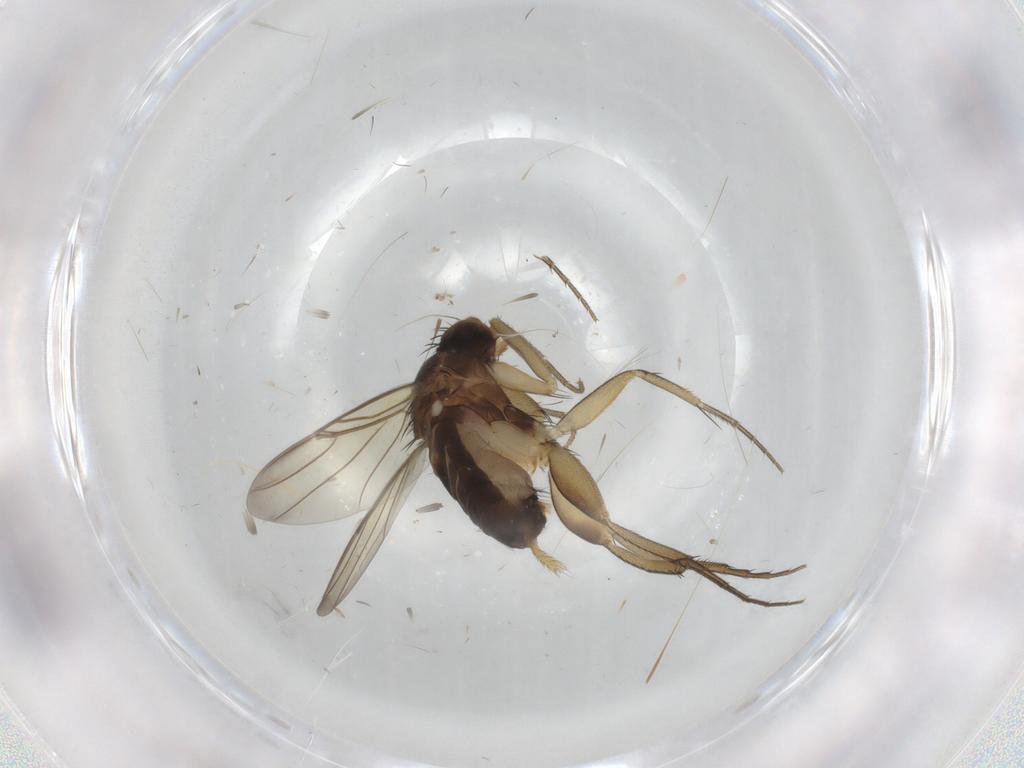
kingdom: Animalia
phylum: Arthropoda
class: Insecta
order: Diptera
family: Phoridae
